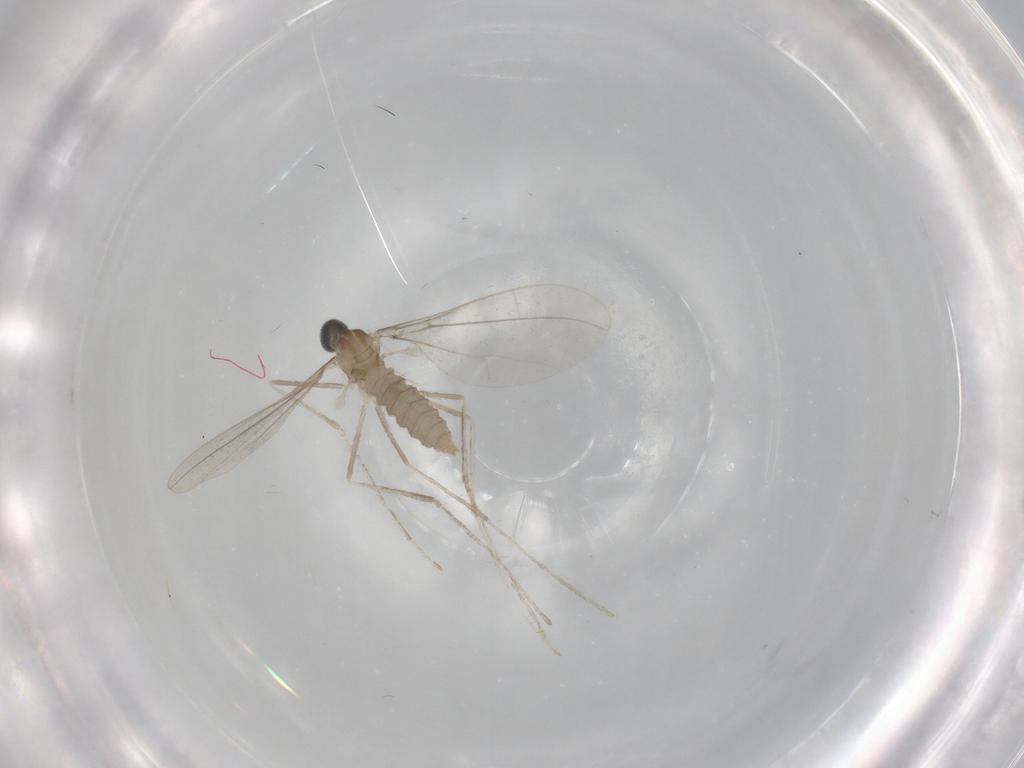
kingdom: Animalia
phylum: Arthropoda
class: Insecta
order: Diptera
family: Cecidomyiidae
